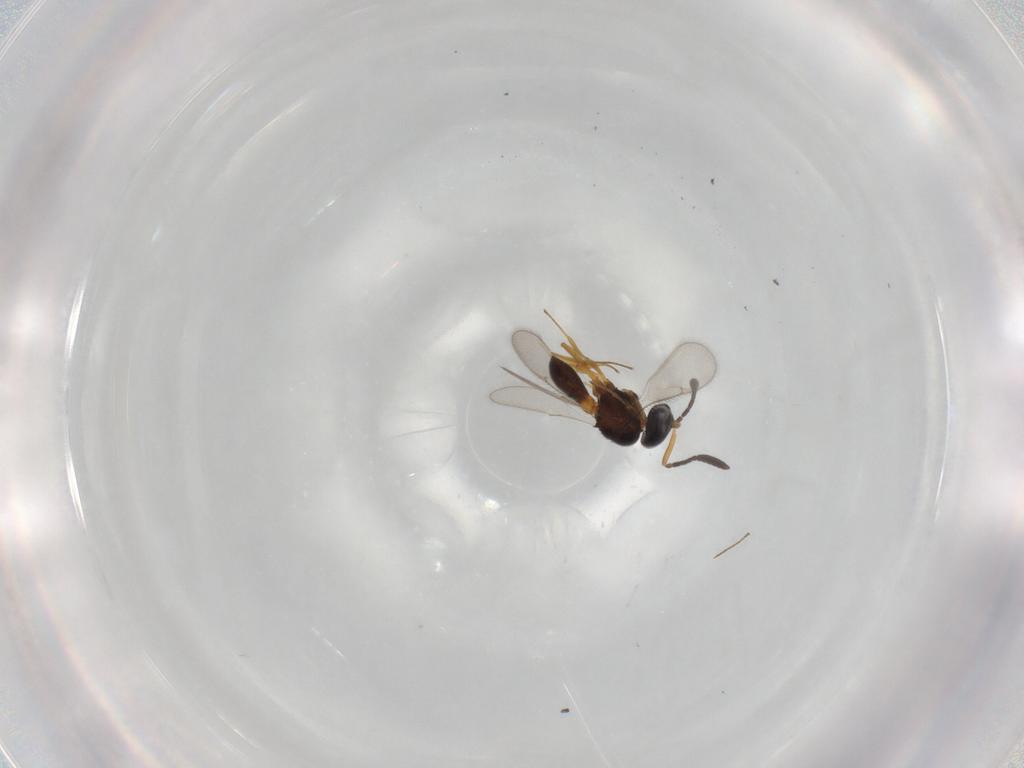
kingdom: Animalia
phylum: Arthropoda
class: Insecta
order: Hymenoptera
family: Scelionidae
